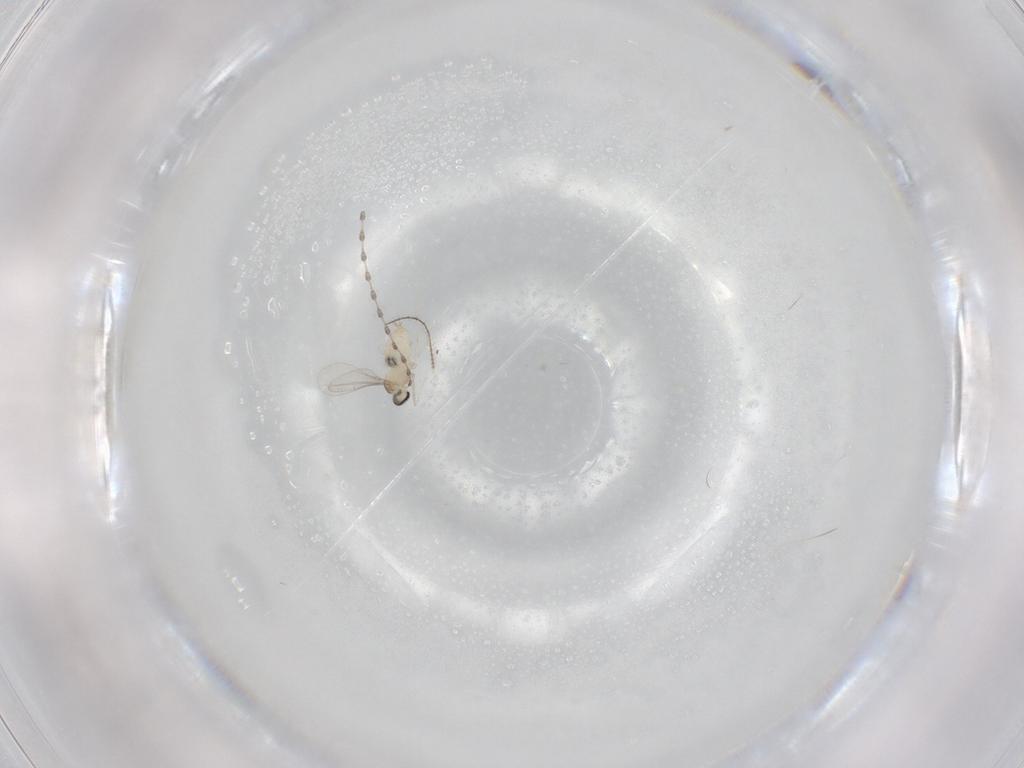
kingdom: Animalia
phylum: Arthropoda
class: Insecta
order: Diptera
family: Cecidomyiidae
